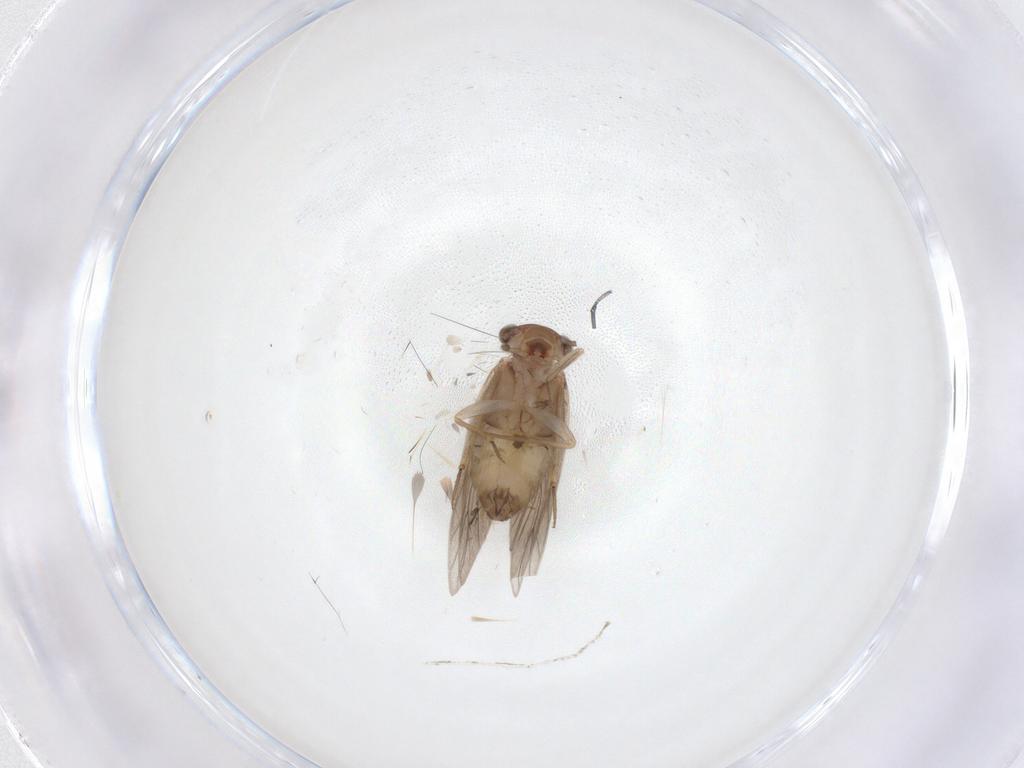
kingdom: Animalia
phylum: Arthropoda
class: Insecta
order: Psocodea
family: Lepidopsocidae
